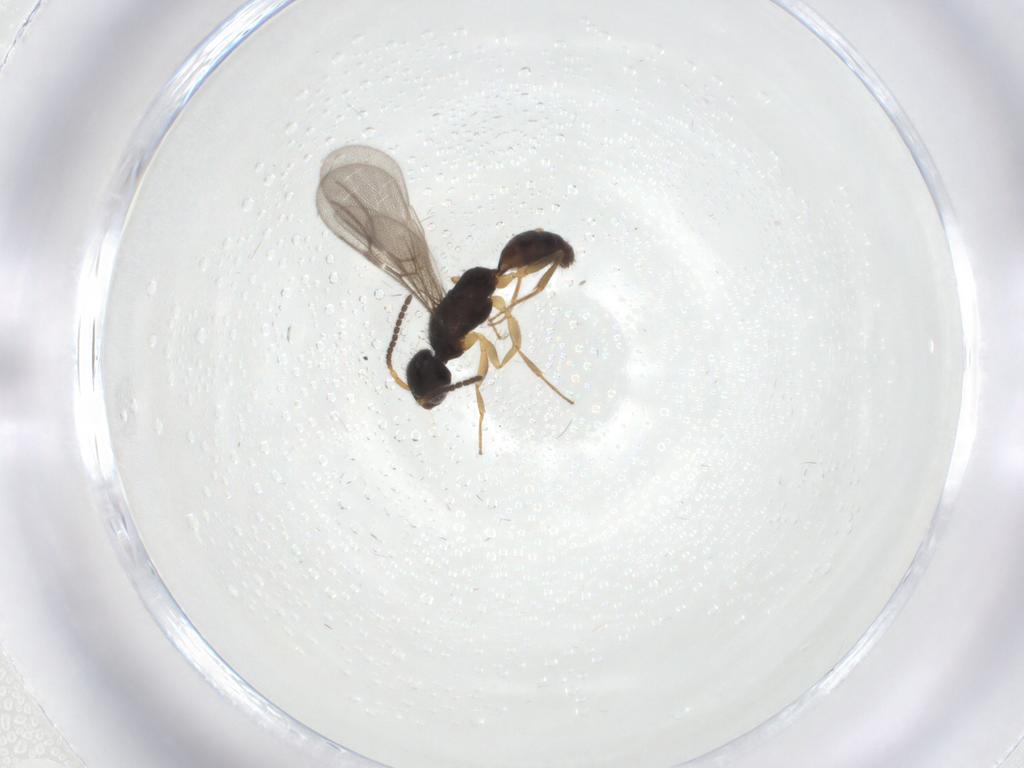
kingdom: Animalia
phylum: Arthropoda
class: Insecta
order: Hymenoptera
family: Bethylidae
